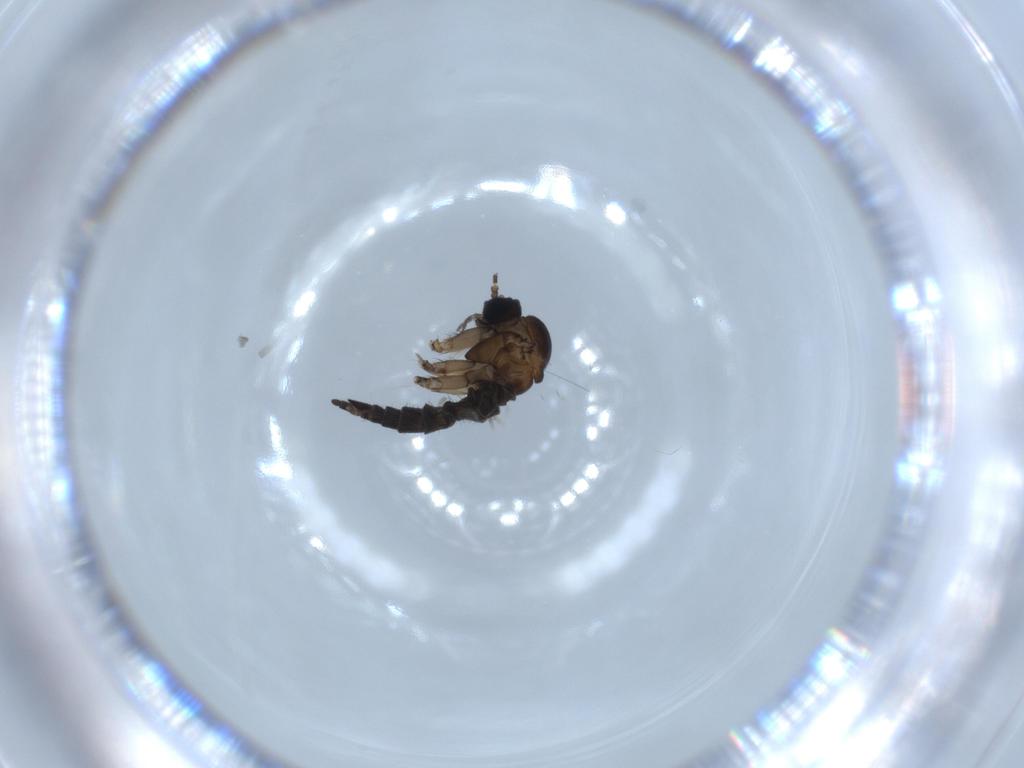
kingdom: Animalia
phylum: Arthropoda
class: Insecta
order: Diptera
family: Sciaridae
